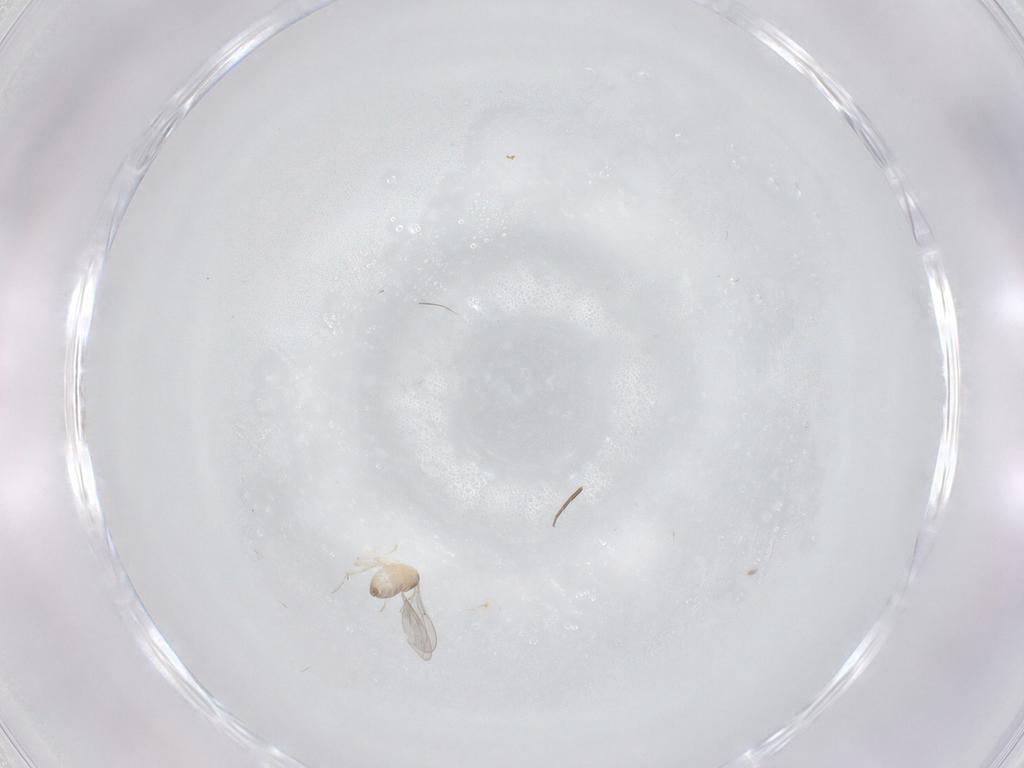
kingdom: Animalia
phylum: Arthropoda
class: Insecta
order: Diptera
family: Cecidomyiidae
